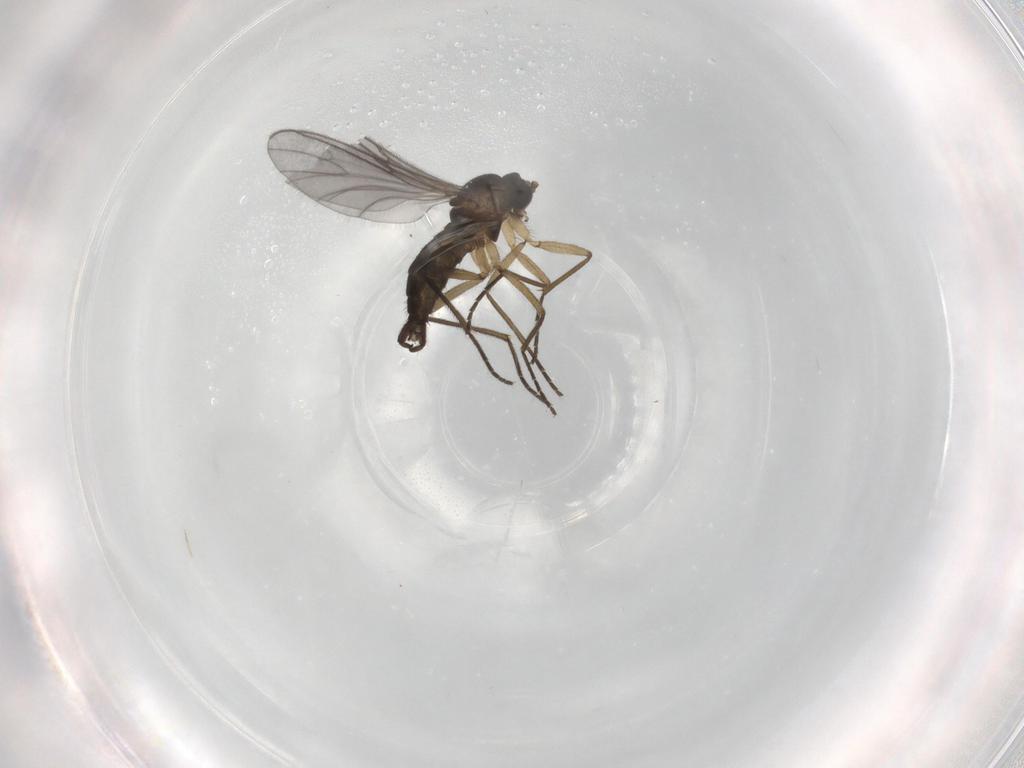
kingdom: Animalia
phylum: Arthropoda
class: Insecta
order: Diptera
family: Sciaridae
